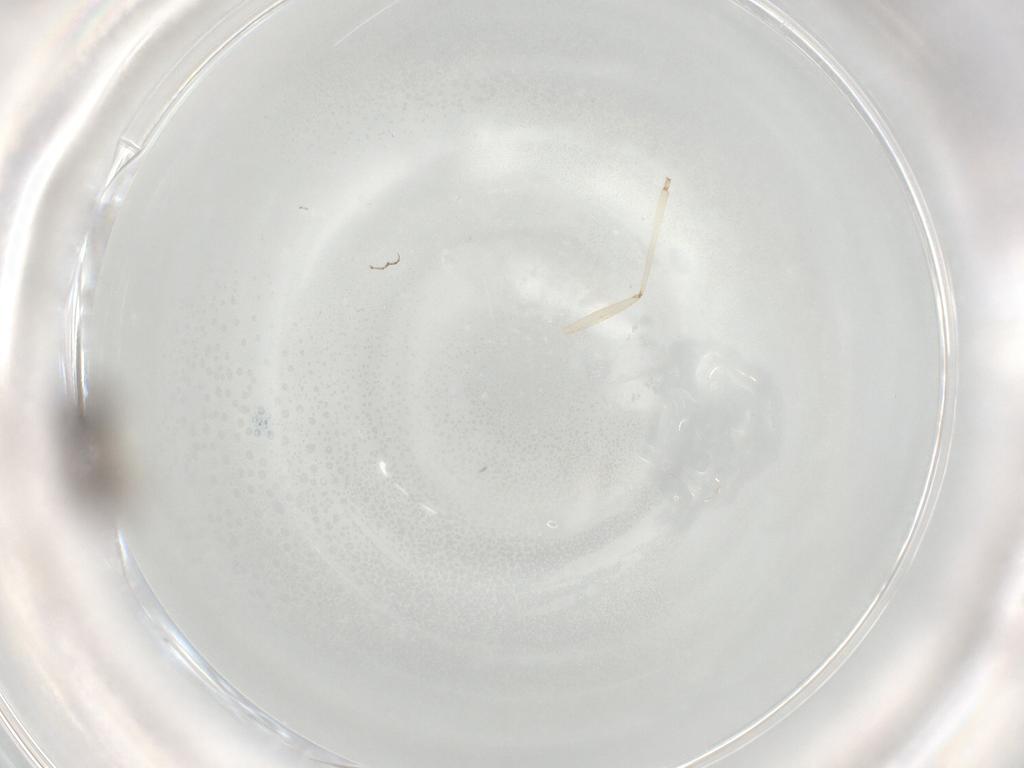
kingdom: Animalia
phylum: Arthropoda
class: Insecta
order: Diptera
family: Ceratopogonidae
